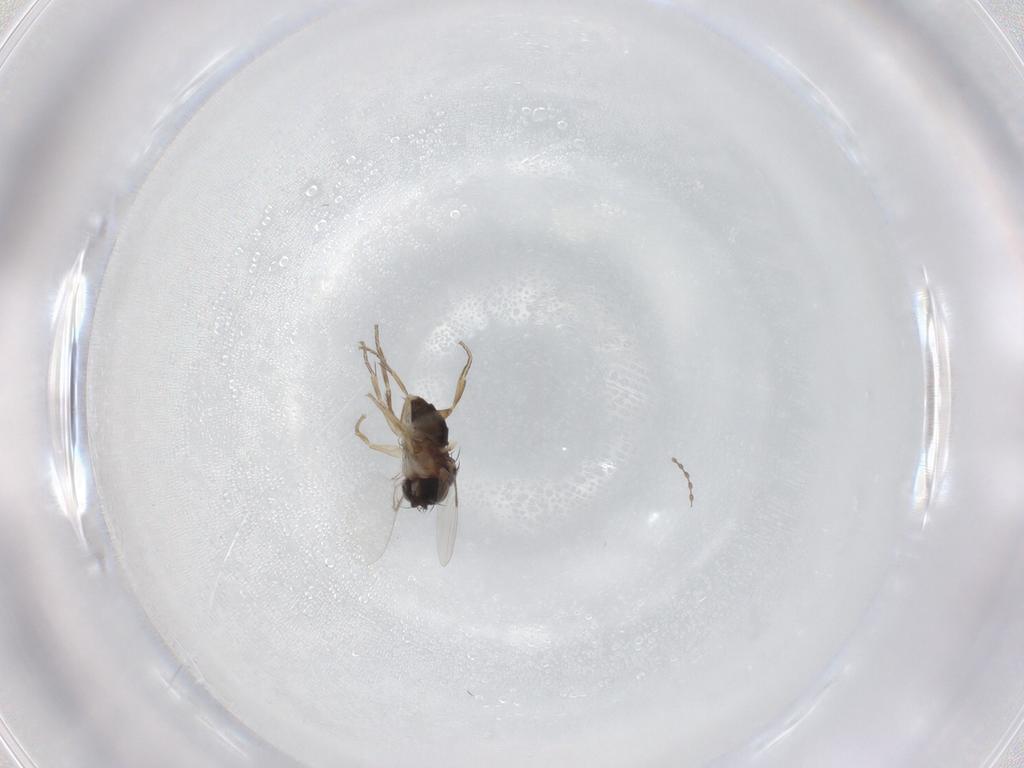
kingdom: Animalia
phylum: Arthropoda
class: Insecta
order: Diptera
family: Phoridae
